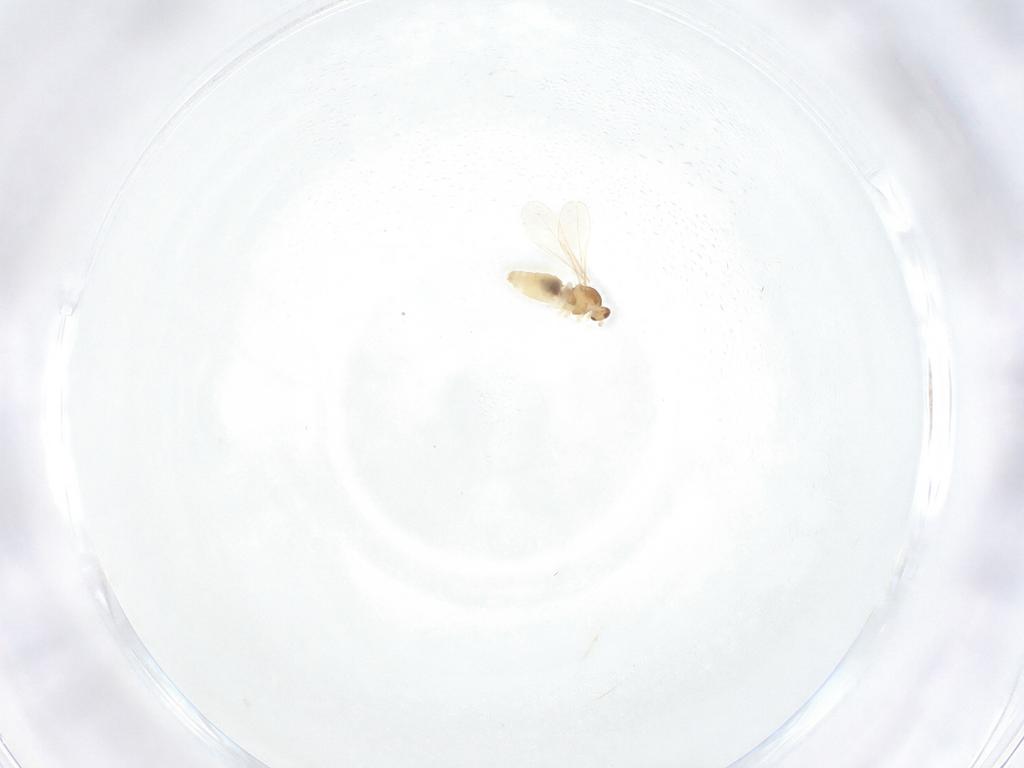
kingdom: Animalia
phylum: Arthropoda
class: Insecta
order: Diptera
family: Cecidomyiidae
